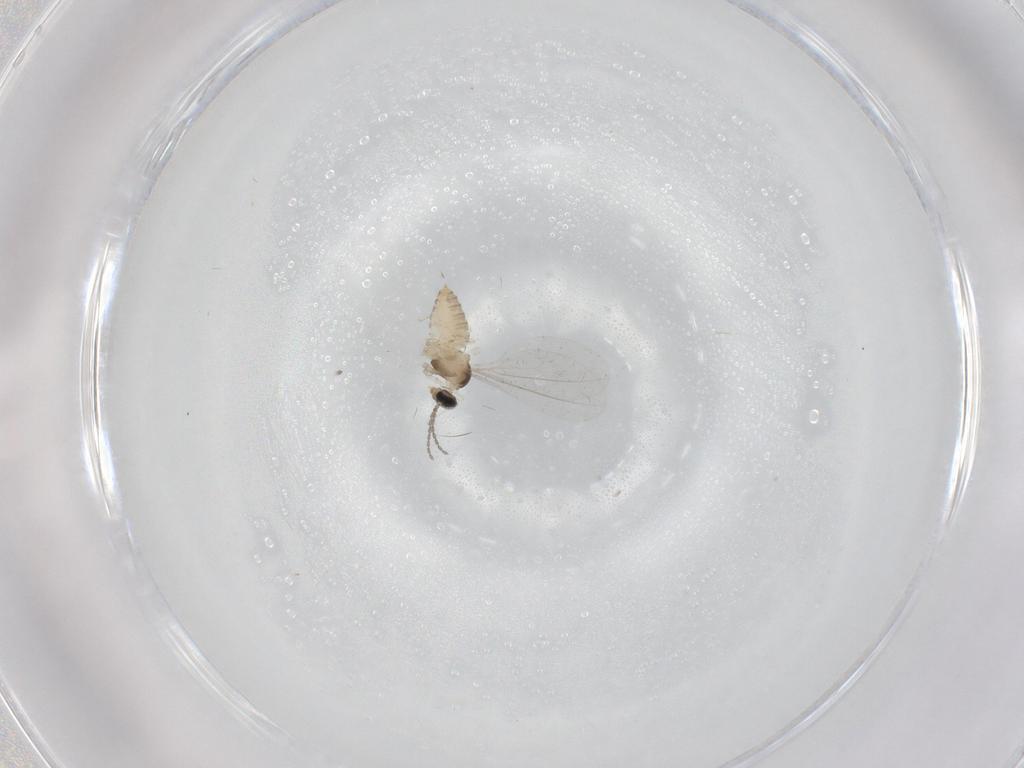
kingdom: Animalia
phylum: Arthropoda
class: Insecta
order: Diptera
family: Cecidomyiidae
